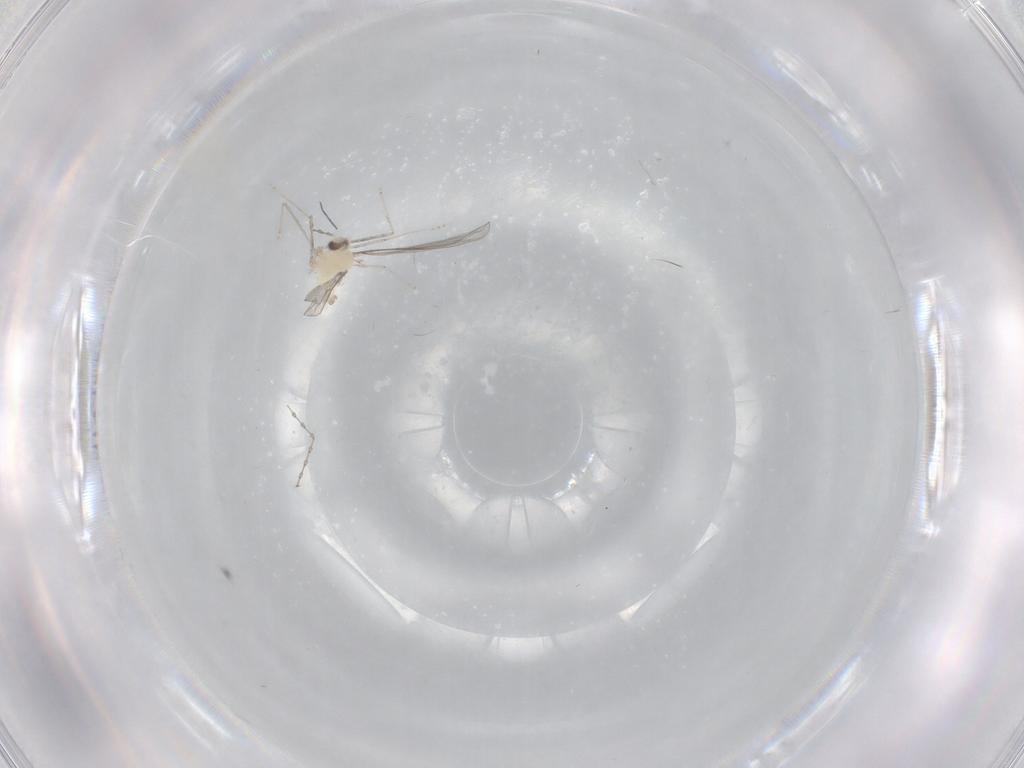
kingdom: Animalia
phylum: Arthropoda
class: Insecta
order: Diptera
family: Cecidomyiidae
